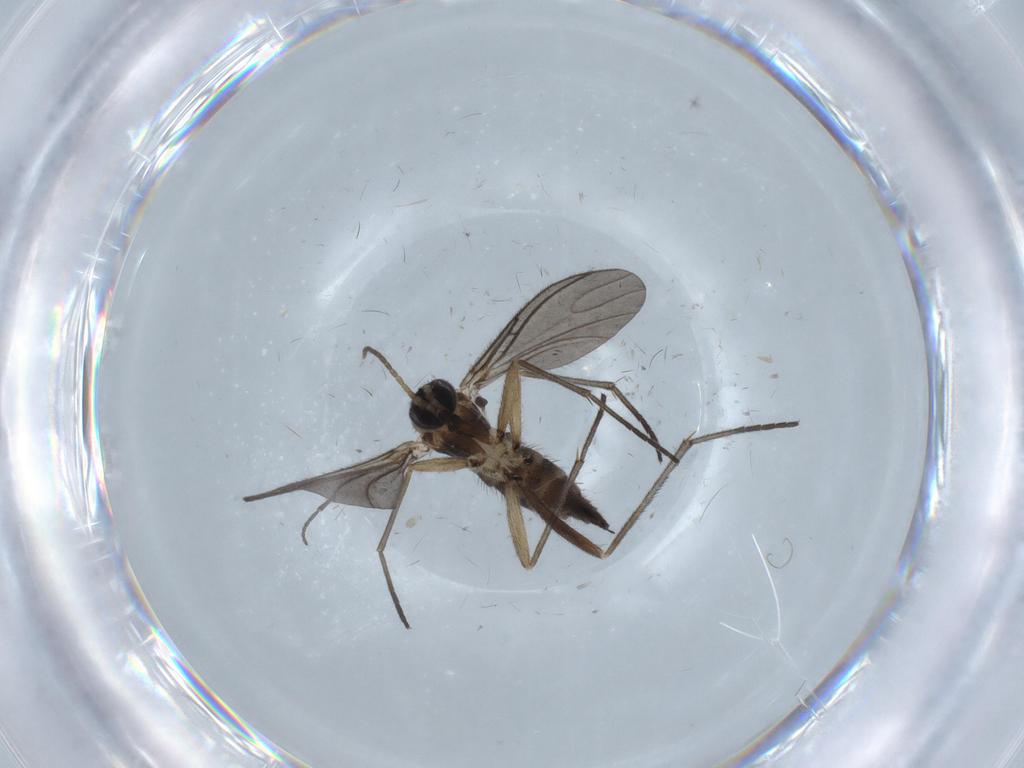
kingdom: Animalia
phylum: Arthropoda
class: Insecta
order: Diptera
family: Sciaridae
